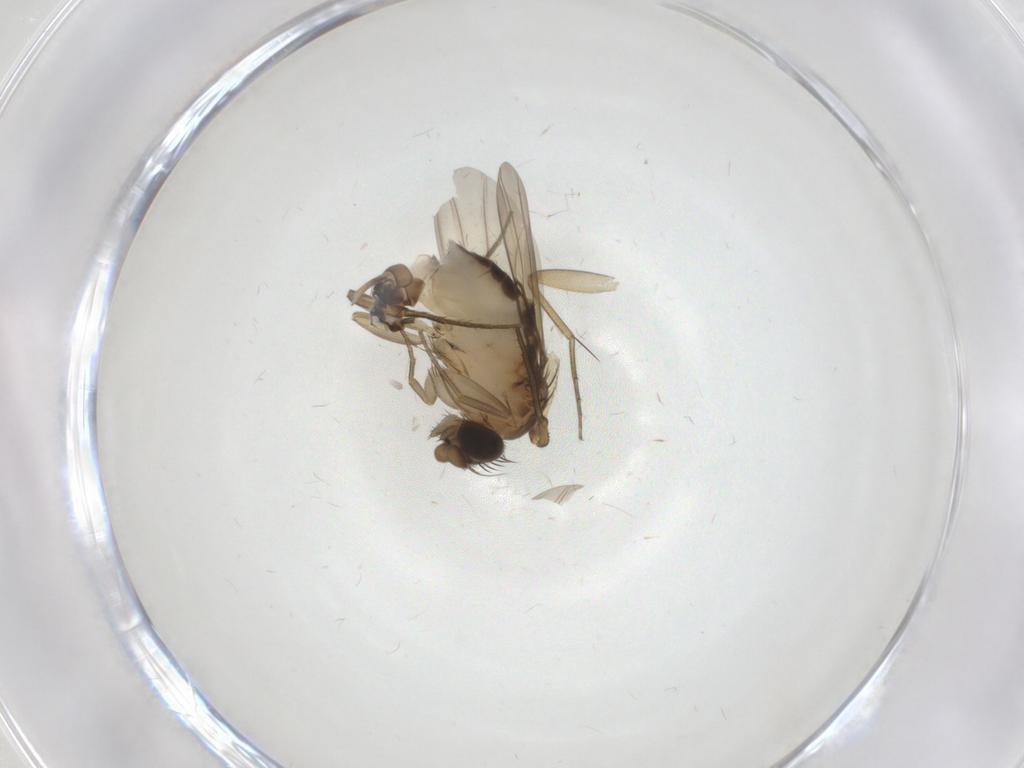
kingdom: Animalia
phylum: Arthropoda
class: Insecta
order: Diptera
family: Phoridae
